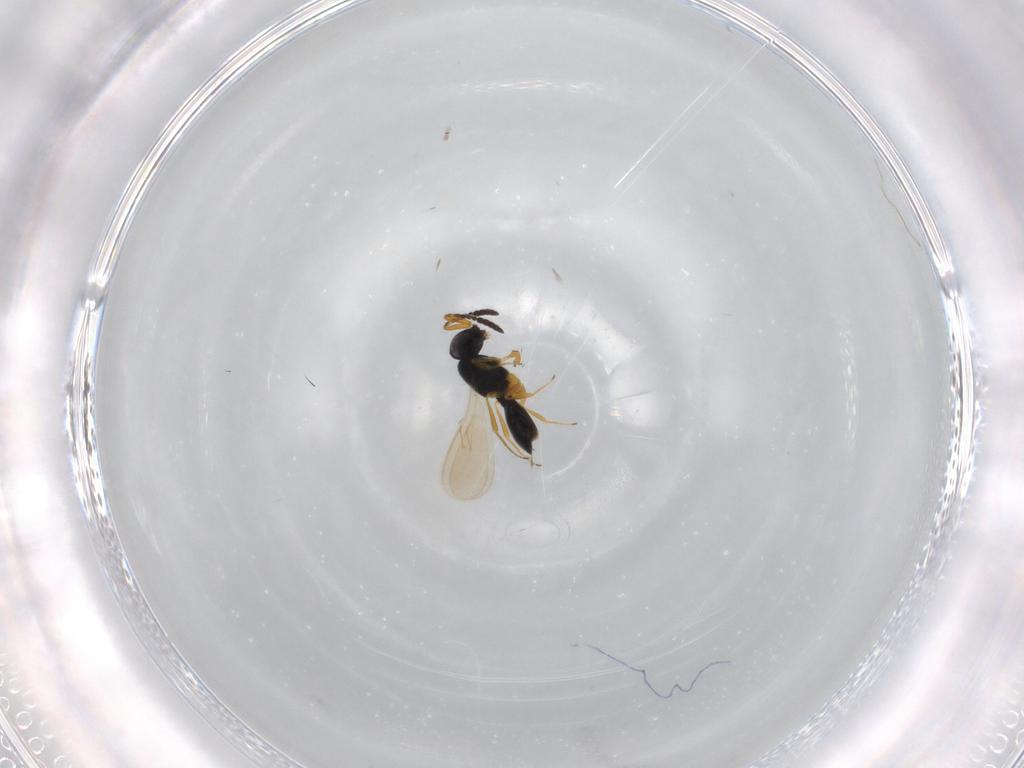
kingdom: Animalia
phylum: Arthropoda
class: Insecta
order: Hymenoptera
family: Scelionidae
